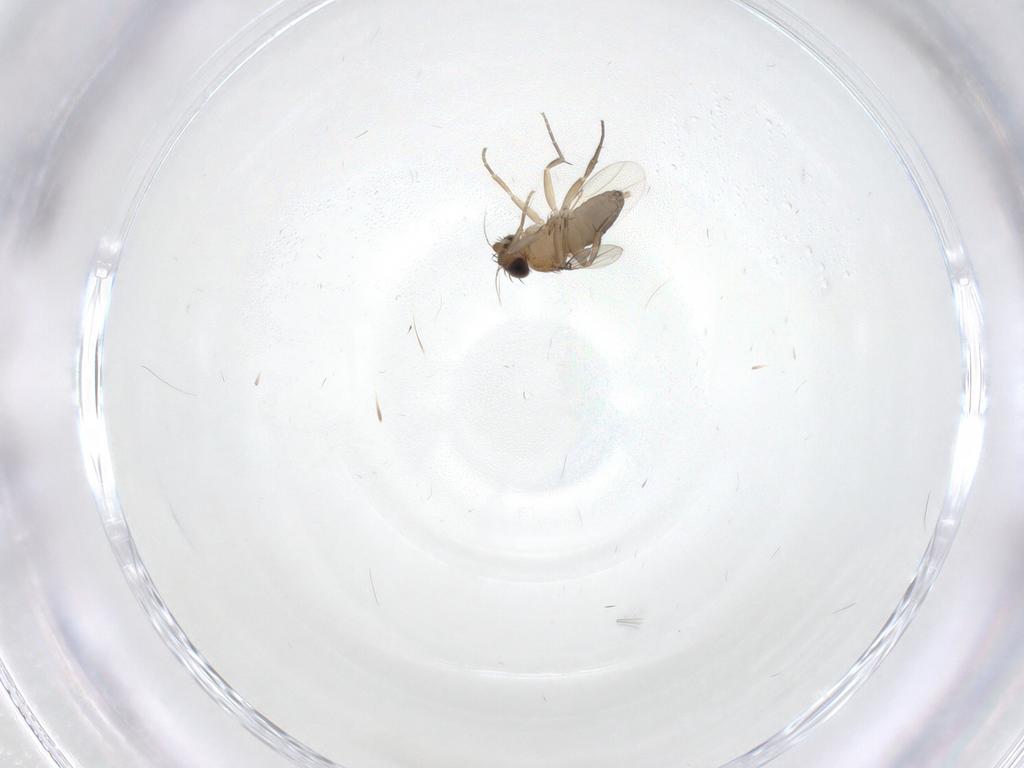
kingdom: Animalia
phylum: Arthropoda
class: Insecta
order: Diptera
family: Phoridae
